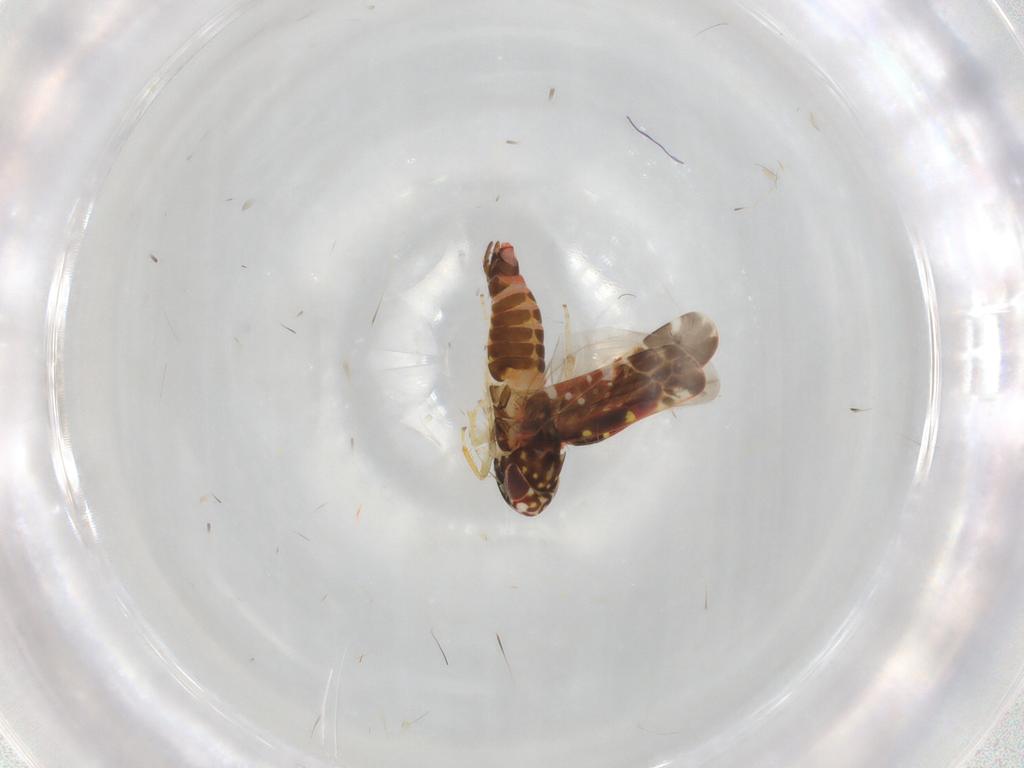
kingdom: Animalia
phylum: Arthropoda
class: Insecta
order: Hemiptera
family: Cicadellidae
